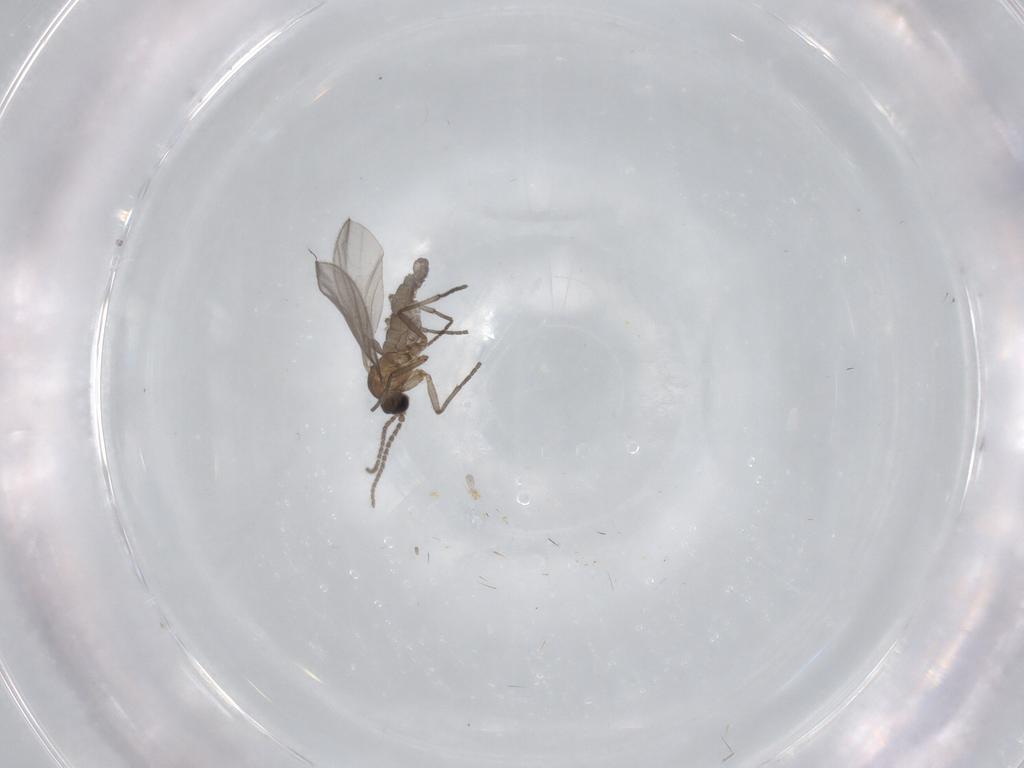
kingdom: Animalia
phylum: Arthropoda
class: Insecta
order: Diptera
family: Sciaridae
